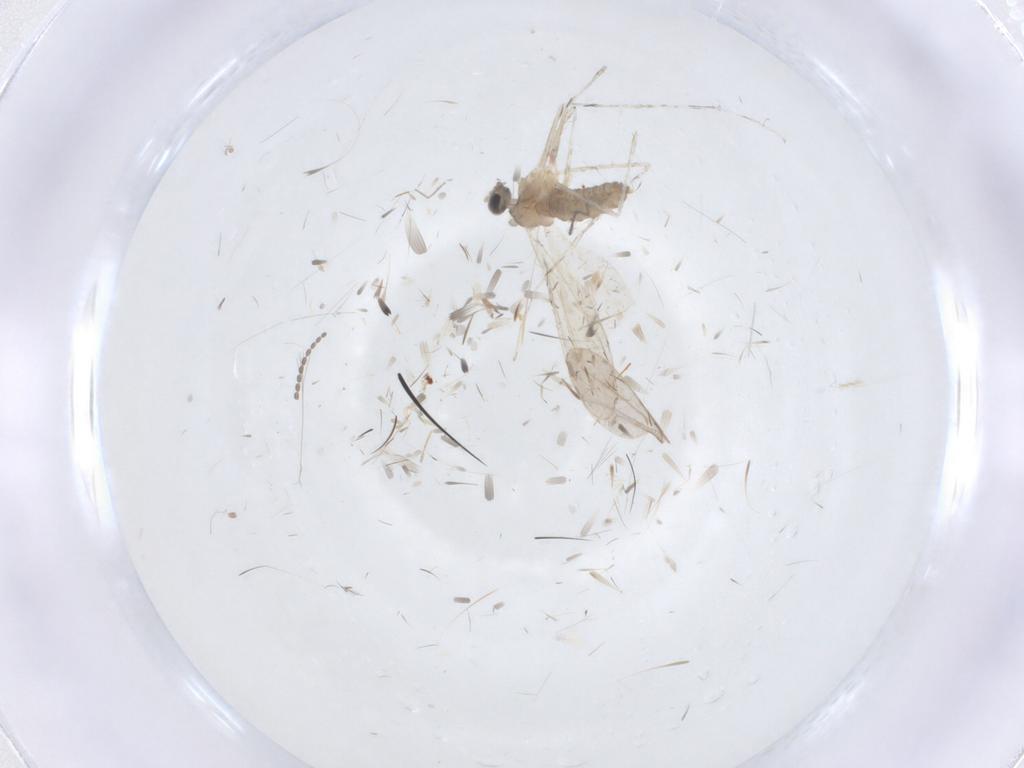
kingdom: Animalia
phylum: Arthropoda
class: Insecta
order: Diptera
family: Cecidomyiidae
